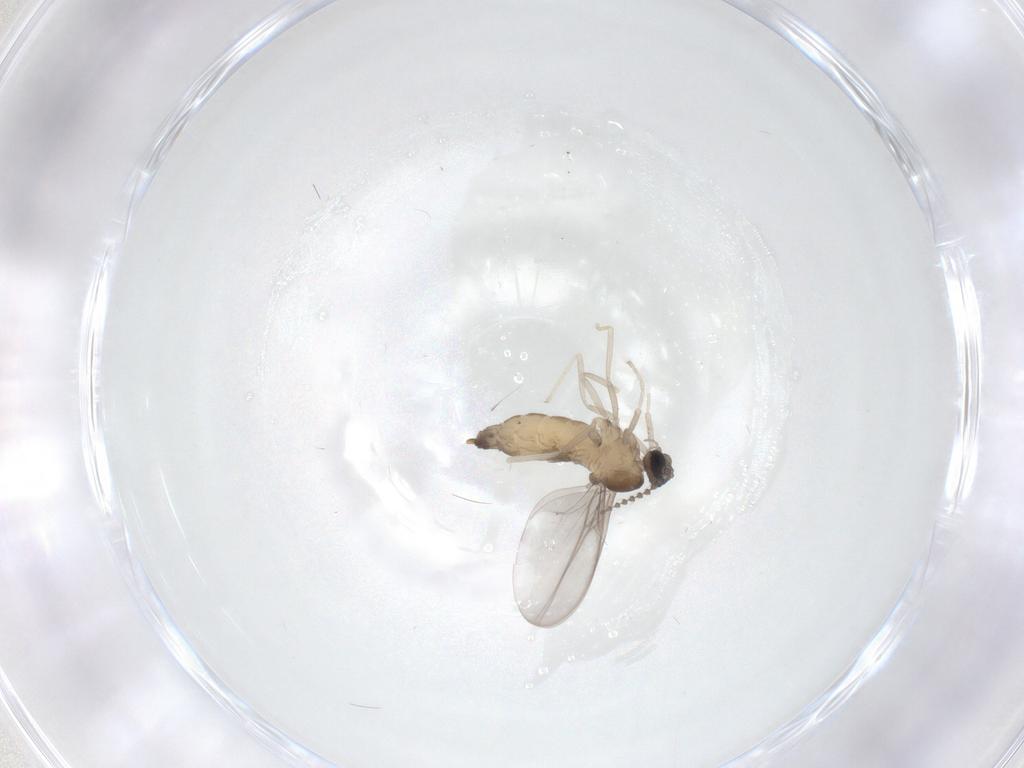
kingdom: Animalia
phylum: Arthropoda
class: Insecta
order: Diptera
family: Cecidomyiidae
